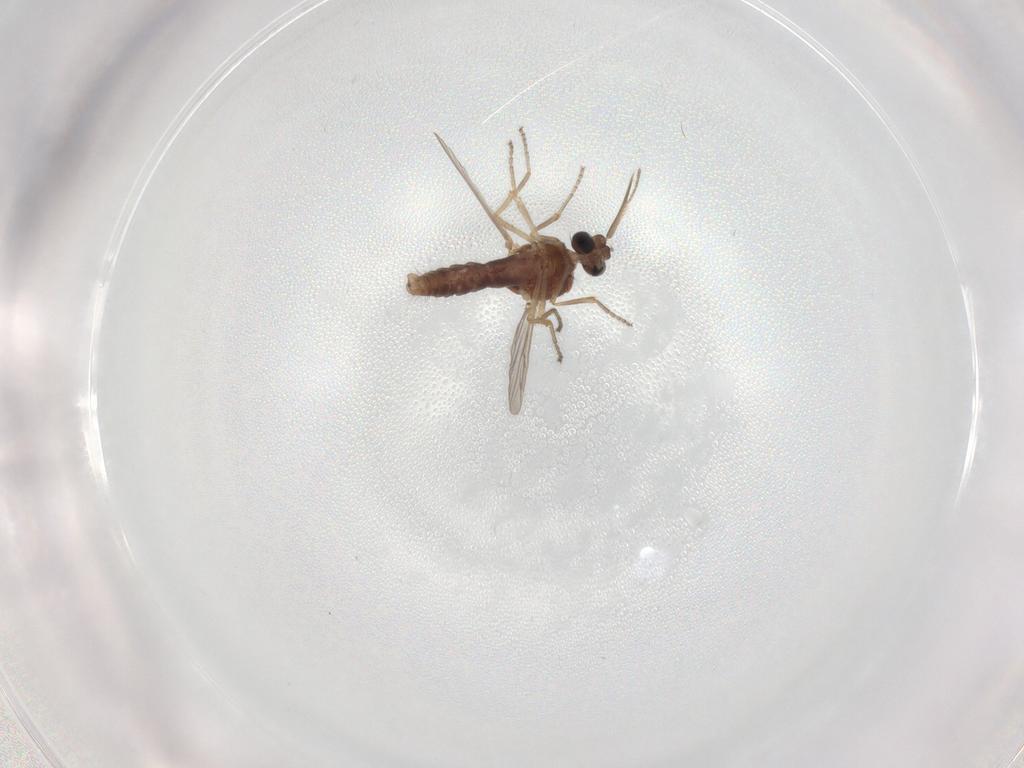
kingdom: Animalia
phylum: Arthropoda
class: Insecta
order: Diptera
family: Ceratopogonidae
